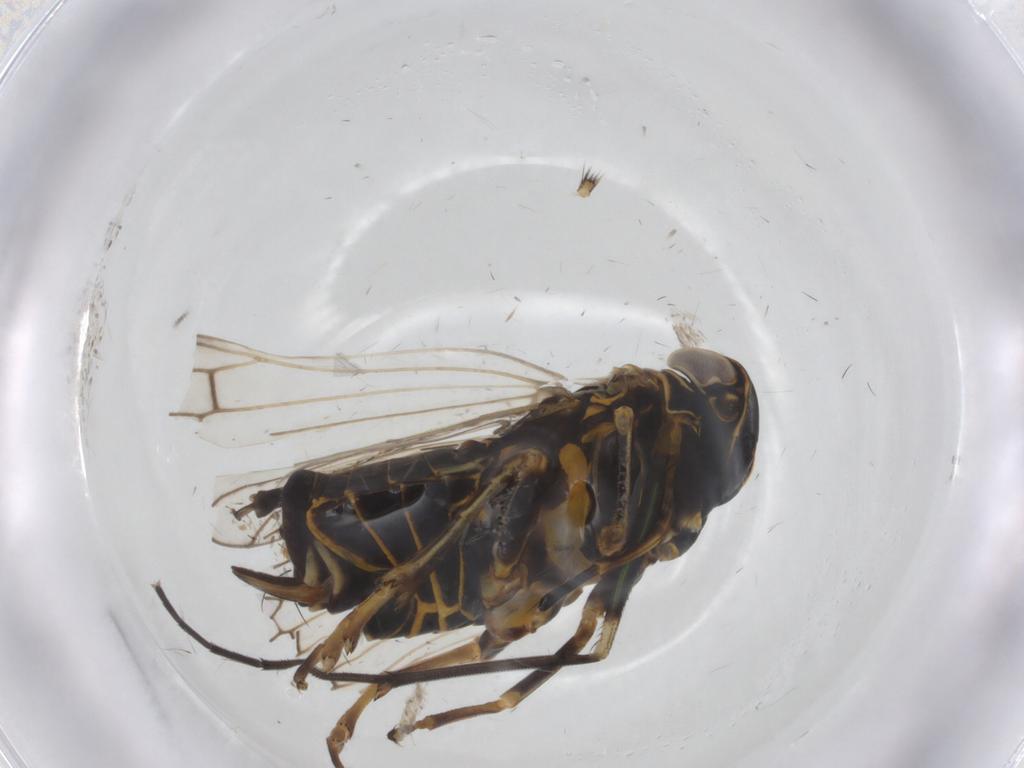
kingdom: Animalia
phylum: Arthropoda
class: Insecta
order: Hemiptera
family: Cixiidae
